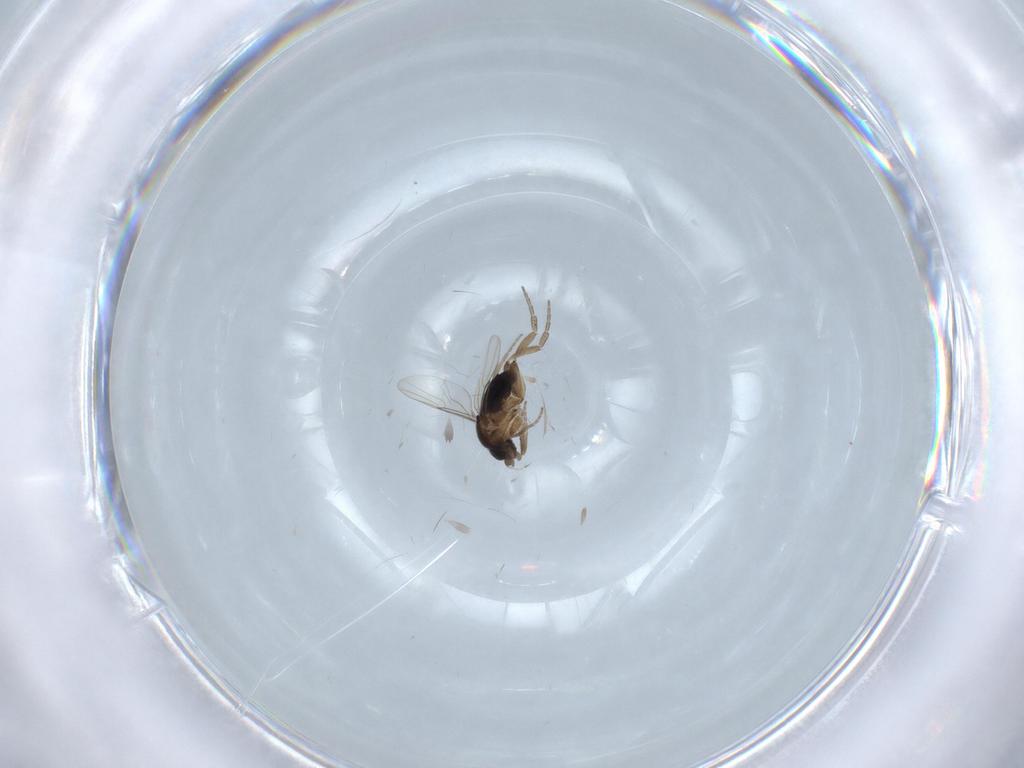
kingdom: Animalia
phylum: Arthropoda
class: Insecta
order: Diptera
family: Phoridae
